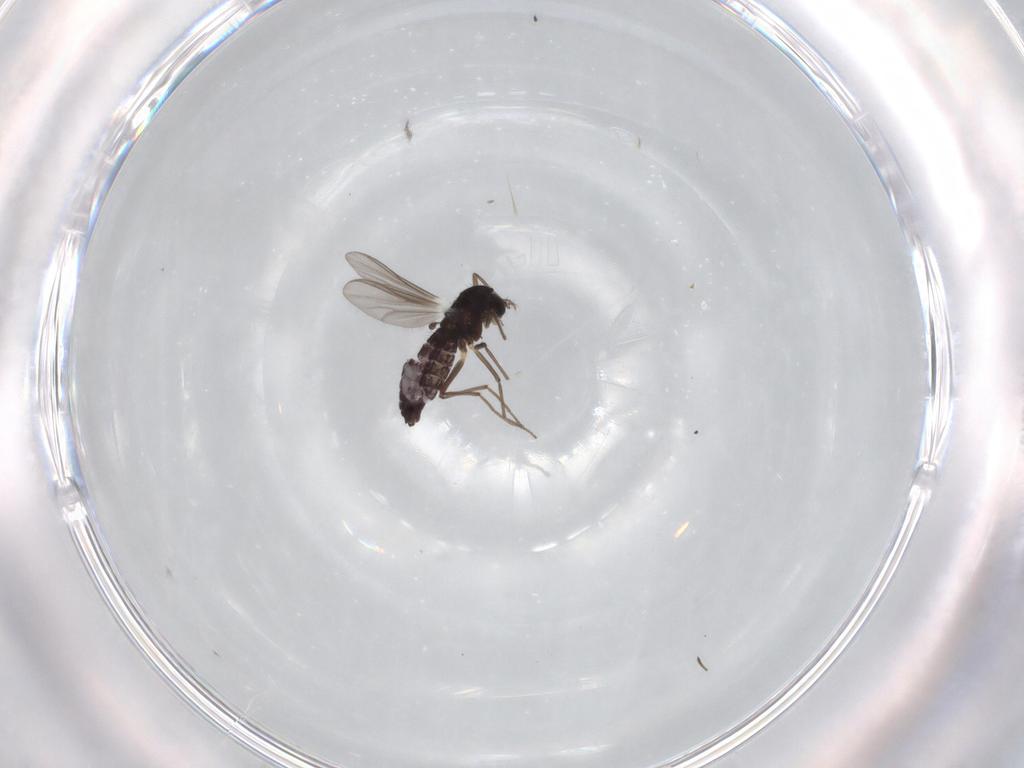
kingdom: Animalia
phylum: Arthropoda
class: Insecta
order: Diptera
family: Chironomidae
